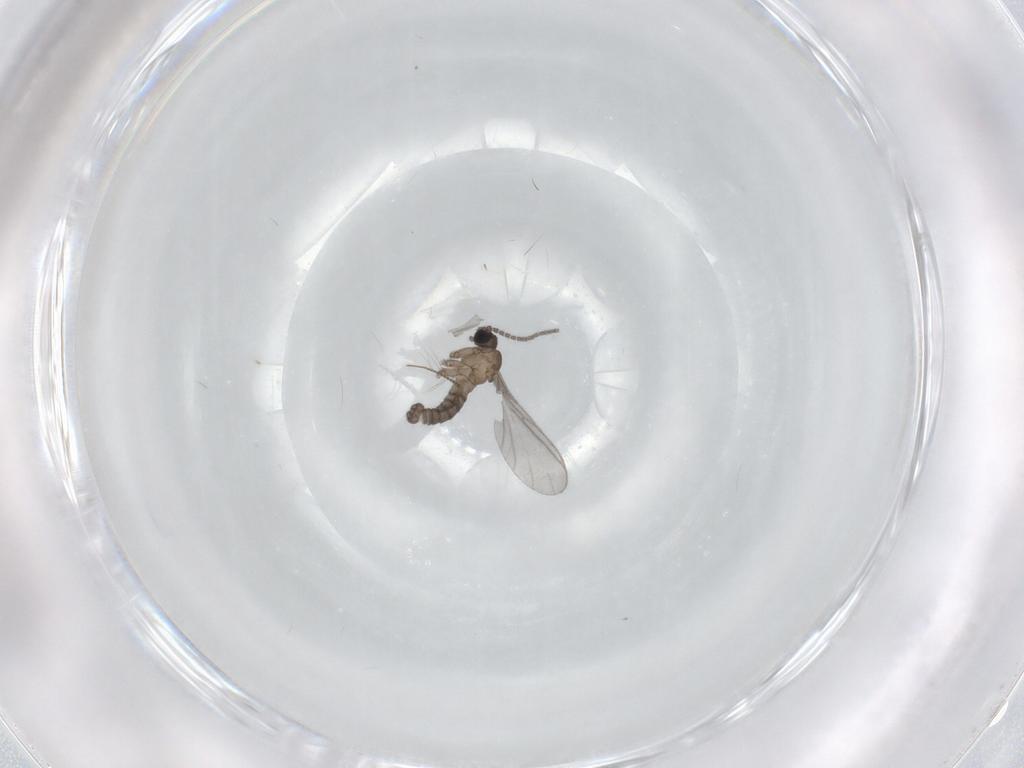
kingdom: Animalia
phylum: Arthropoda
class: Insecta
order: Diptera
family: Sciaridae
